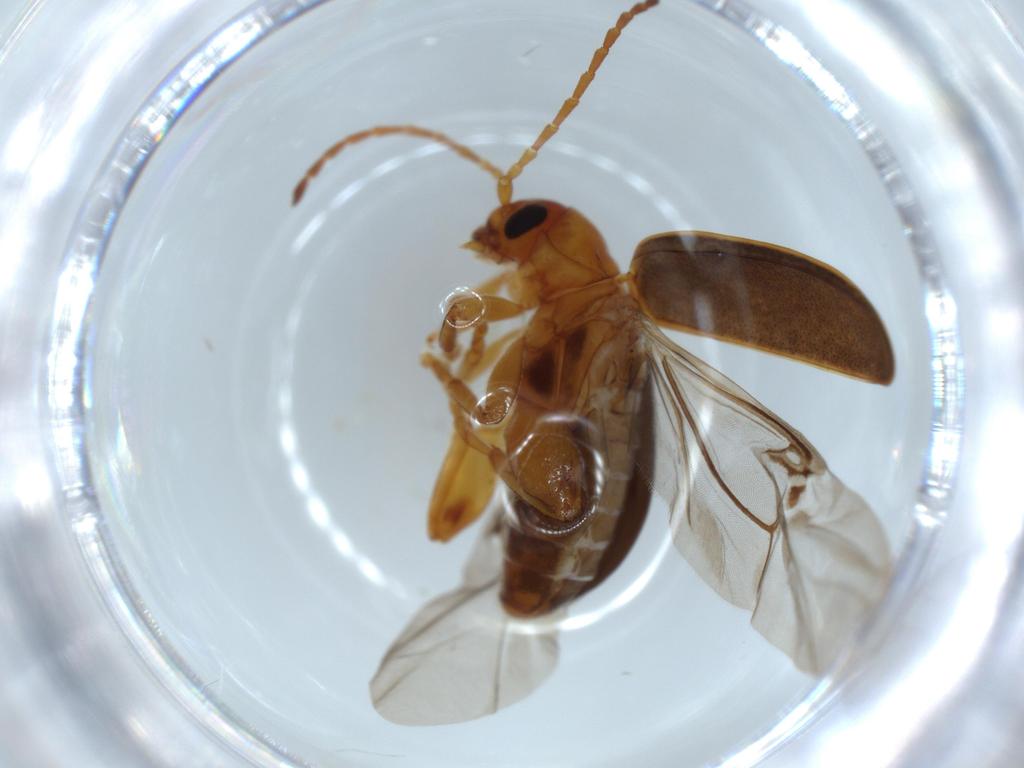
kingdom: Animalia
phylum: Arthropoda
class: Insecta
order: Coleoptera
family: Chrysomelidae
